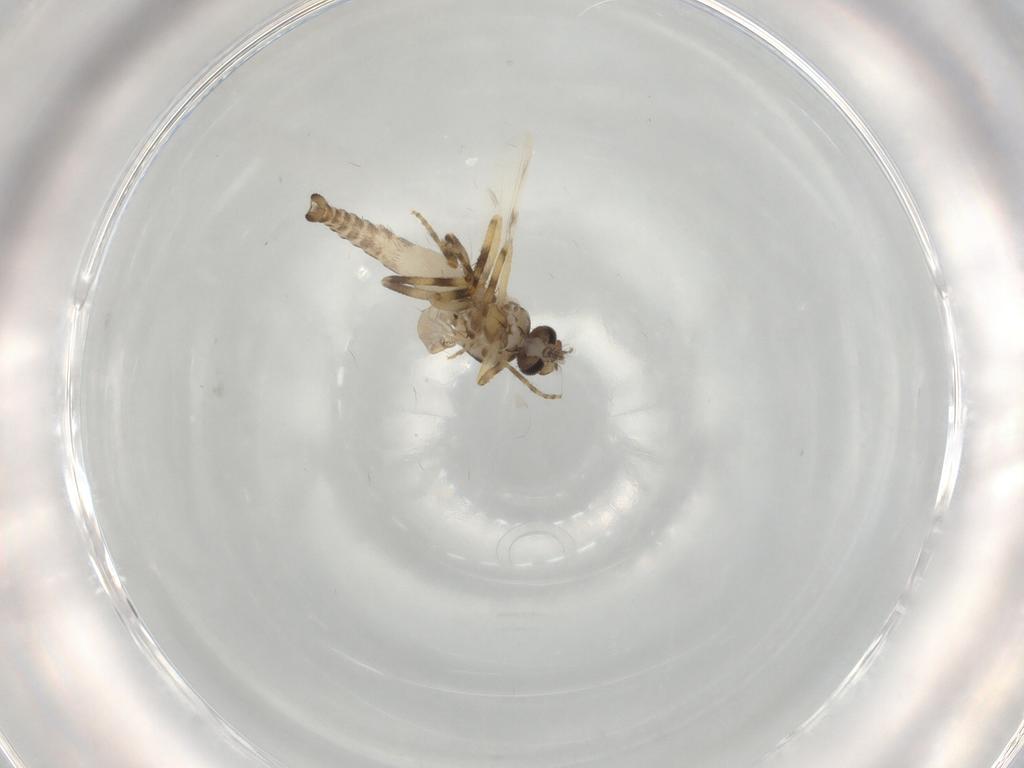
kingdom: Animalia
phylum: Arthropoda
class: Insecta
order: Diptera
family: Ceratopogonidae
